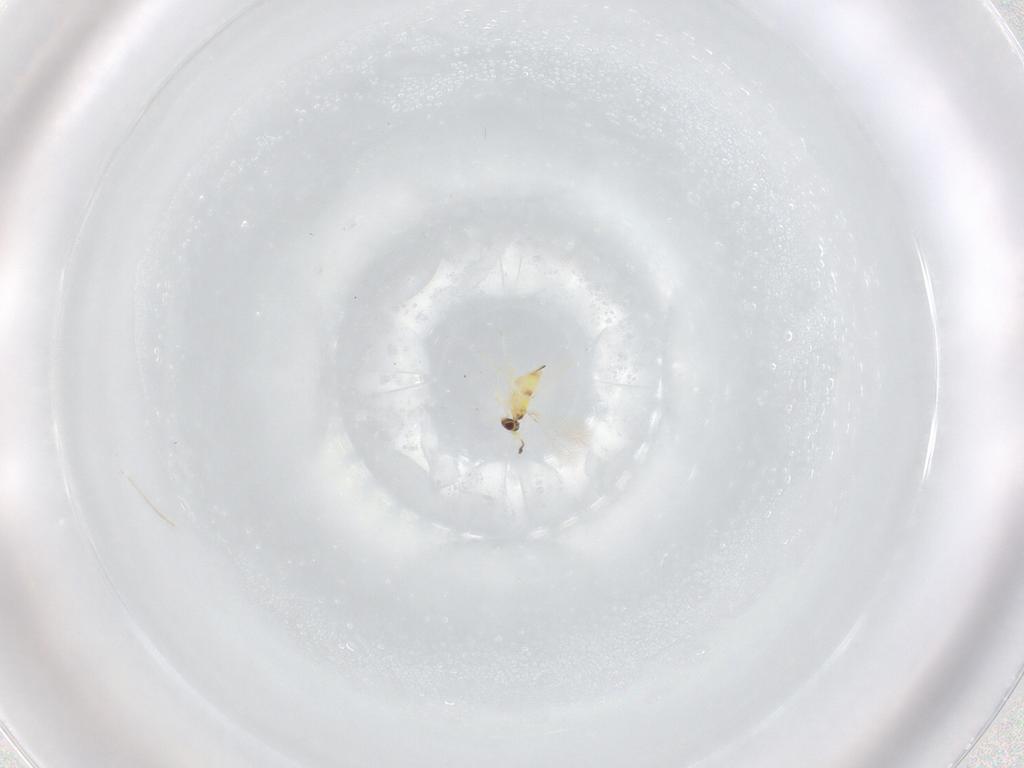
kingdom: Animalia
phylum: Arthropoda
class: Insecta
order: Hymenoptera
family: Mymaridae
